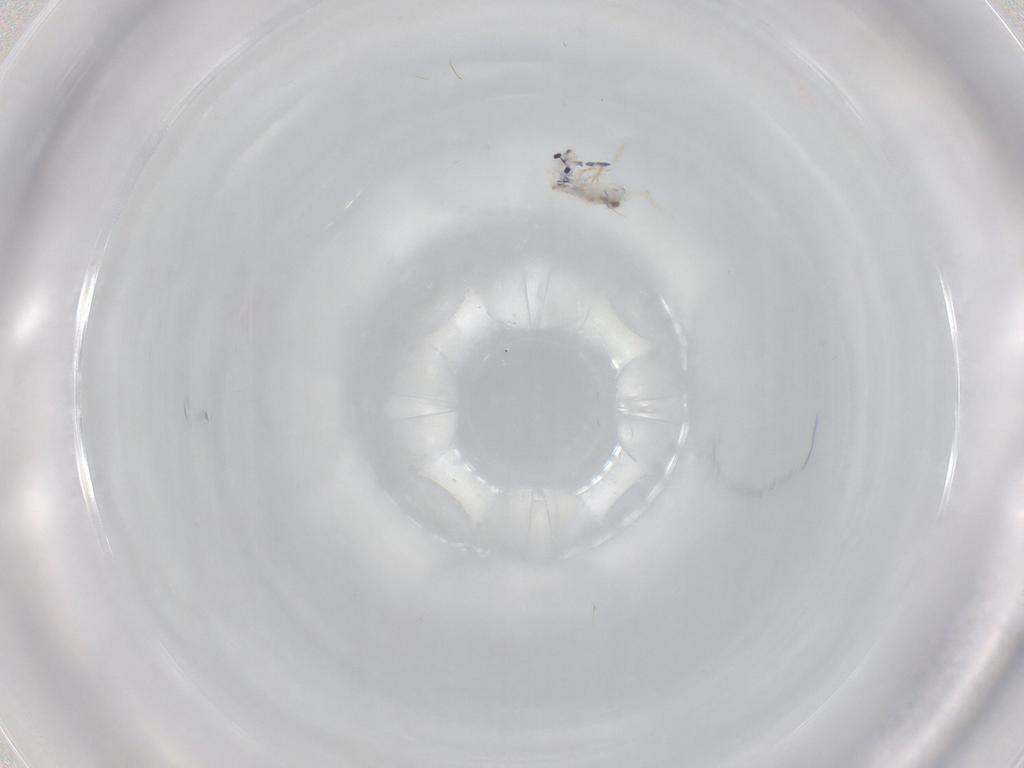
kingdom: Animalia
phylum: Arthropoda
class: Collembola
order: Entomobryomorpha
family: Entomobryidae
